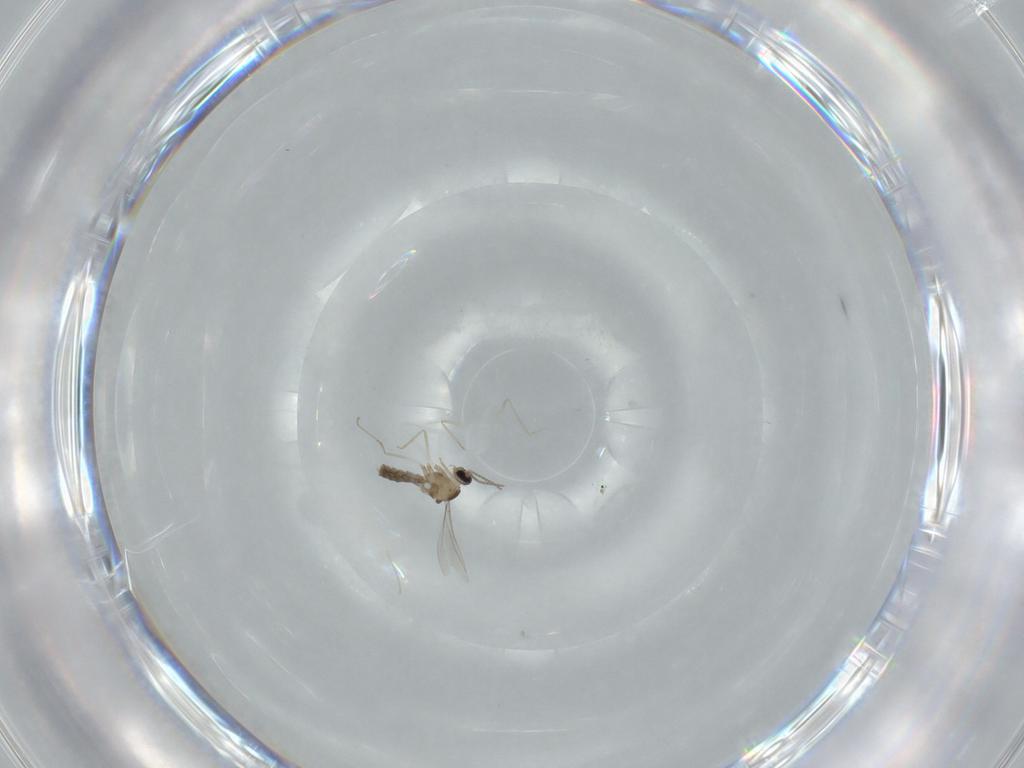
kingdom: Animalia
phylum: Arthropoda
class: Insecta
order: Diptera
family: Cecidomyiidae
